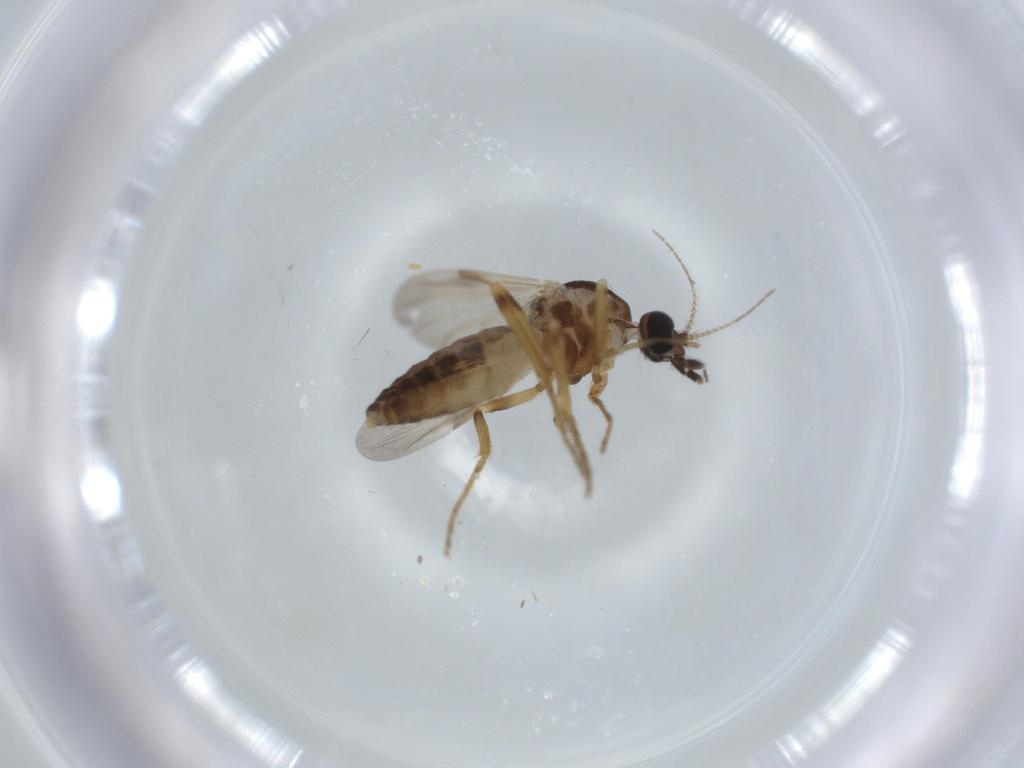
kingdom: Animalia
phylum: Arthropoda
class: Insecta
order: Diptera
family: Ceratopogonidae
